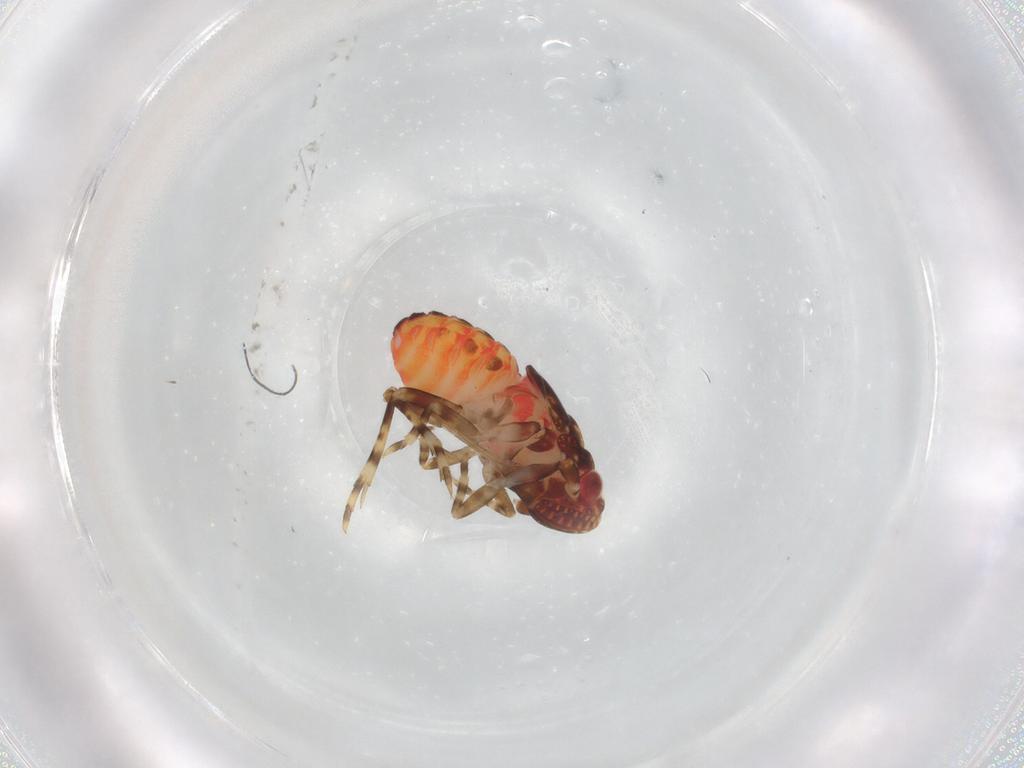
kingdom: Animalia
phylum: Arthropoda
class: Insecta
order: Hemiptera
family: Delphacidae
